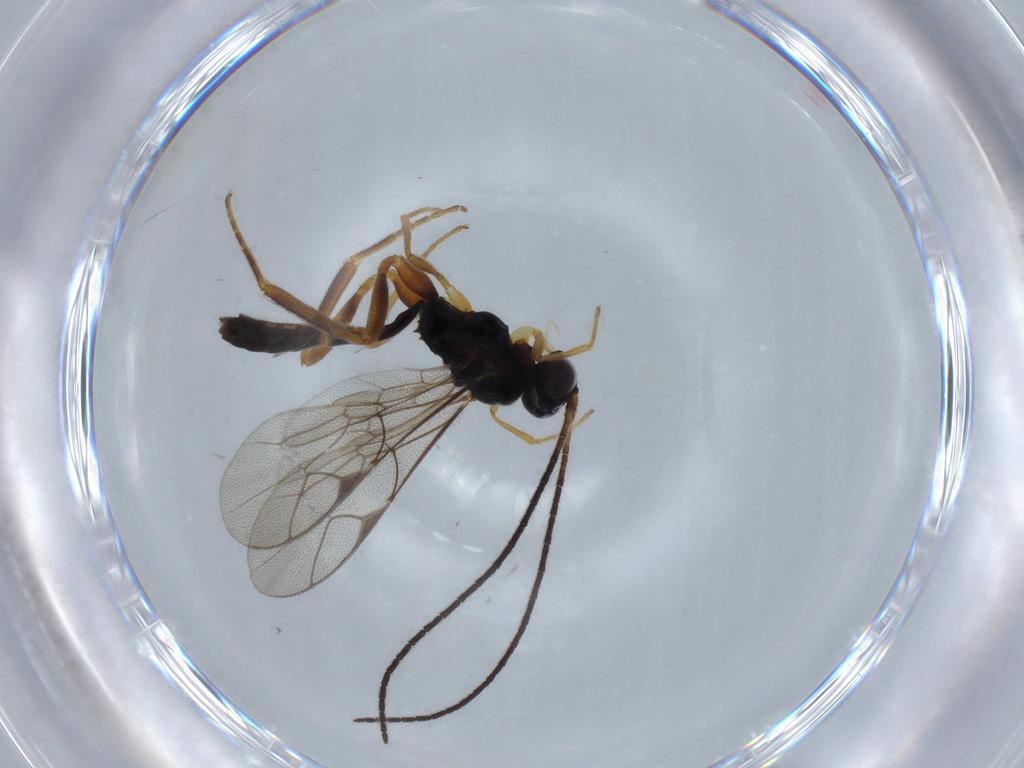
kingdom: Animalia
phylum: Arthropoda
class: Insecta
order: Hymenoptera
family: Ichneumonidae
